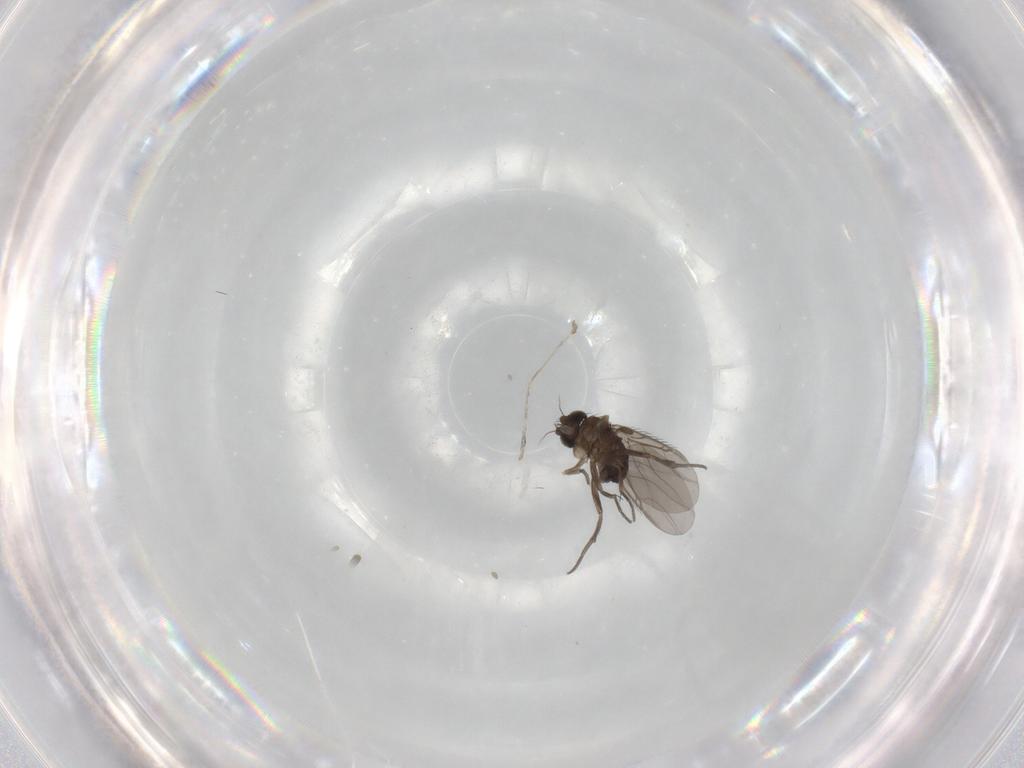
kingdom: Animalia
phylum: Arthropoda
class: Insecta
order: Diptera
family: Phoridae
